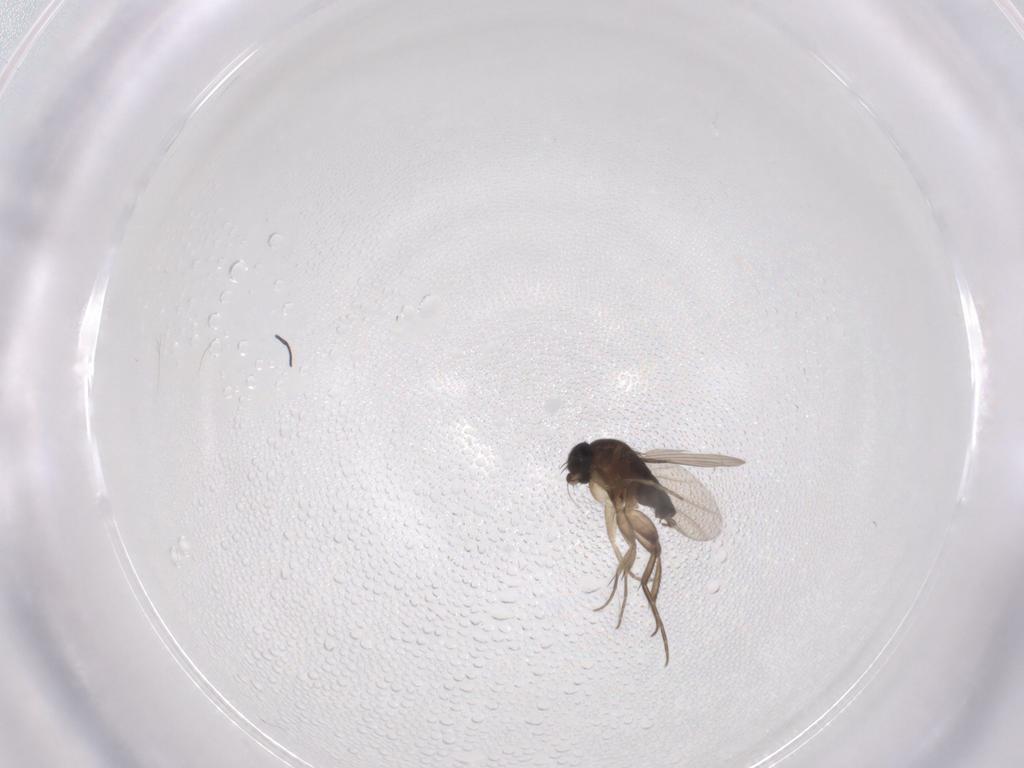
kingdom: Animalia
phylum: Arthropoda
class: Insecta
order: Diptera
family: Phoridae
